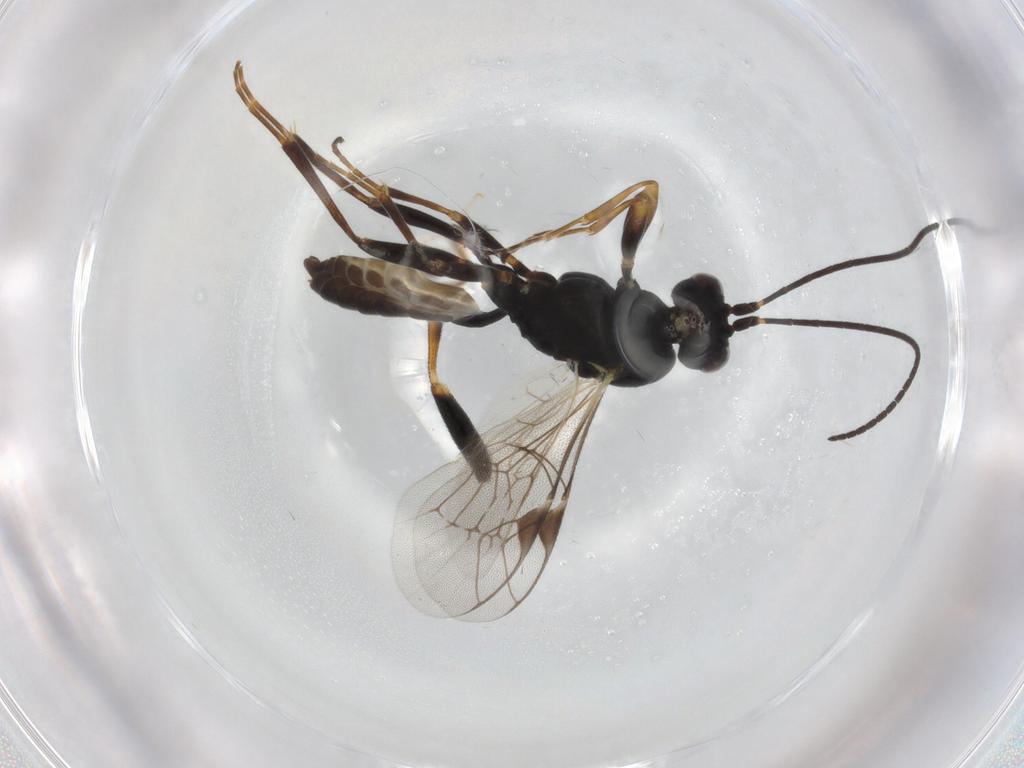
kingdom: Animalia
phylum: Arthropoda
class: Insecta
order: Hymenoptera
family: Ichneumonidae
